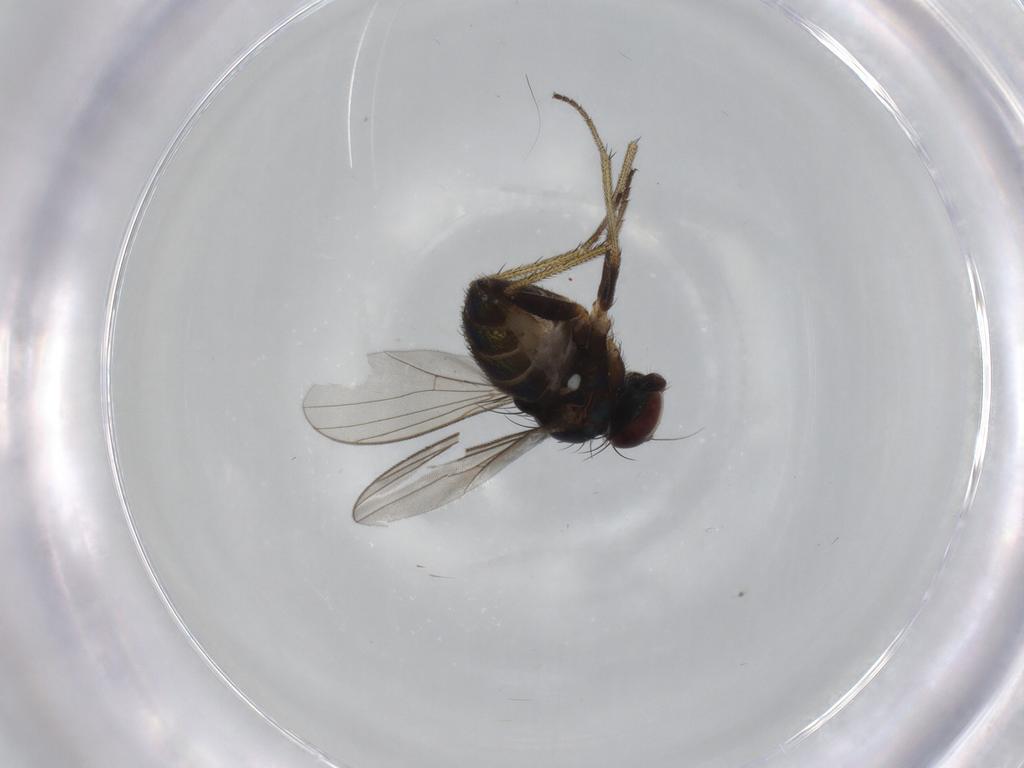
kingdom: Animalia
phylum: Arthropoda
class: Insecta
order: Diptera
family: Dolichopodidae
